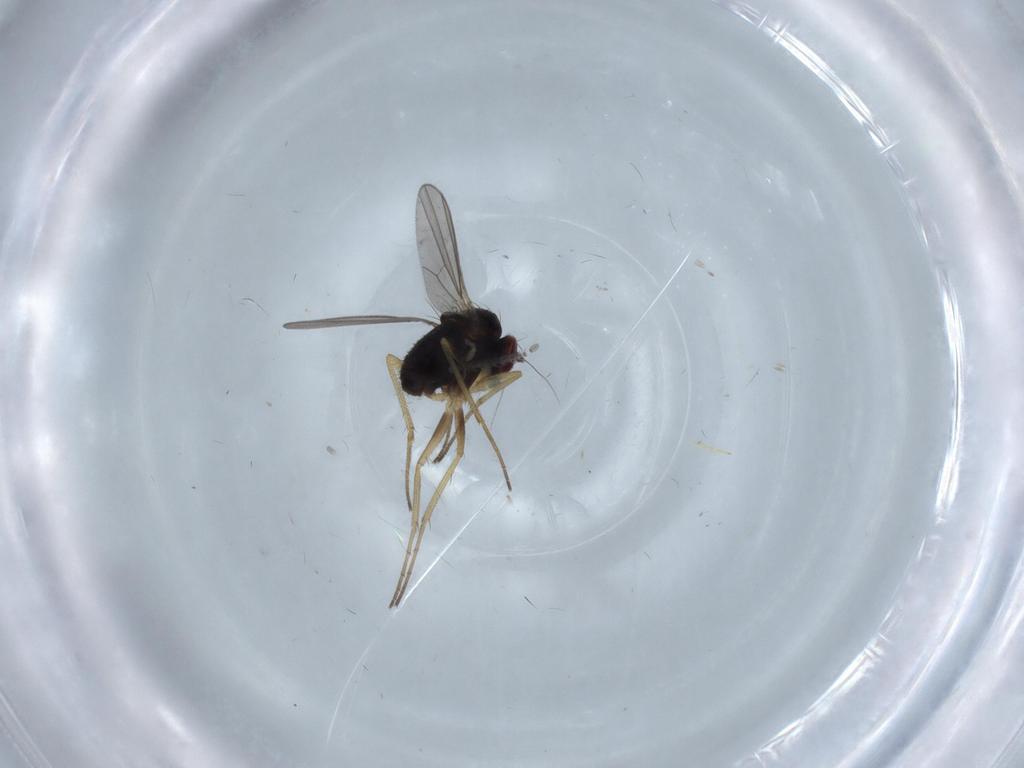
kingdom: Animalia
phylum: Arthropoda
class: Insecta
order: Diptera
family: Dolichopodidae
